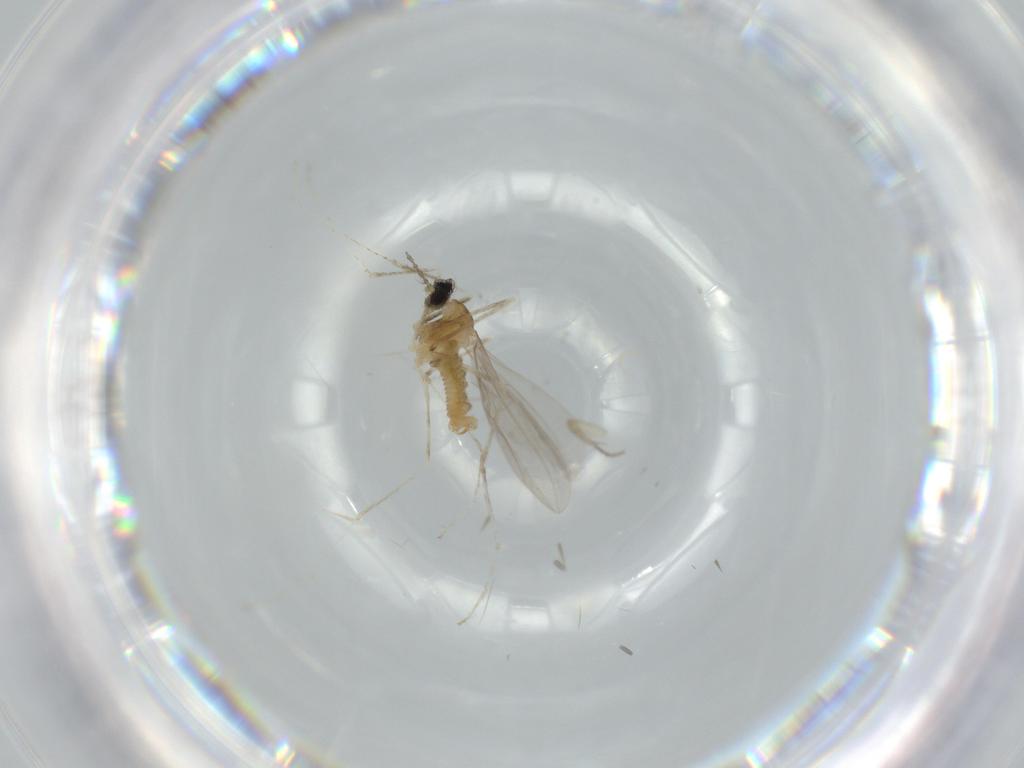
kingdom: Animalia
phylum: Arthropoda
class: Insecta
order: Diptera
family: Cecidomyiidae
